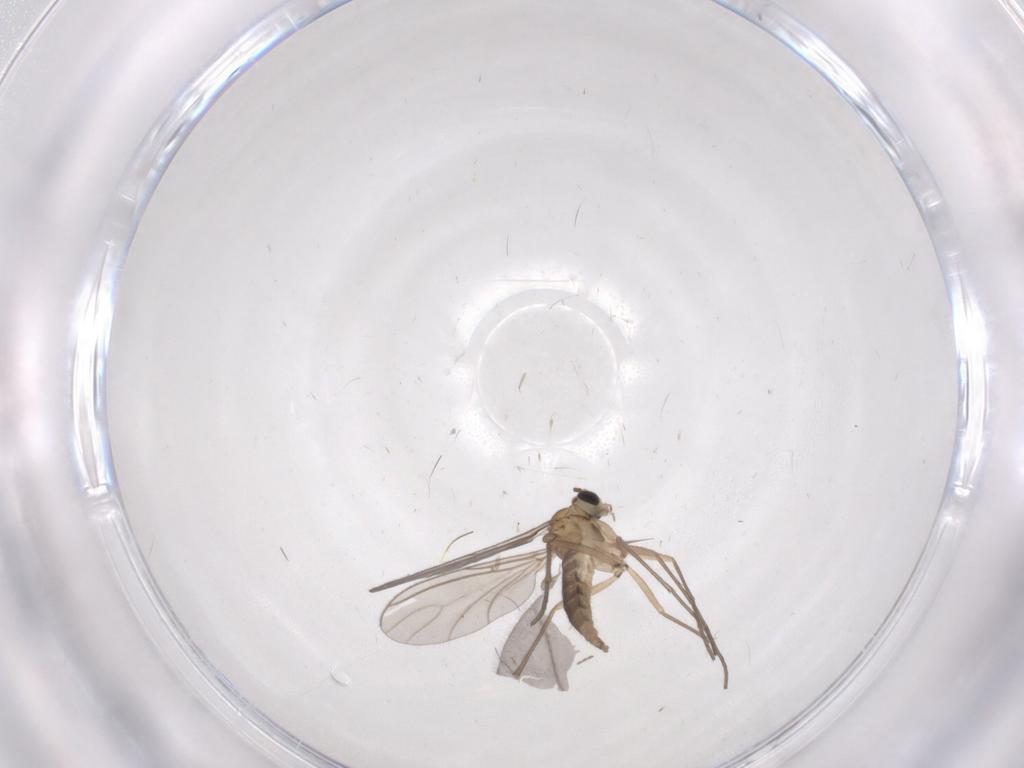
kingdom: Animalia
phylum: Arthropoda
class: Insecta
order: Diptera
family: Sciaridae
